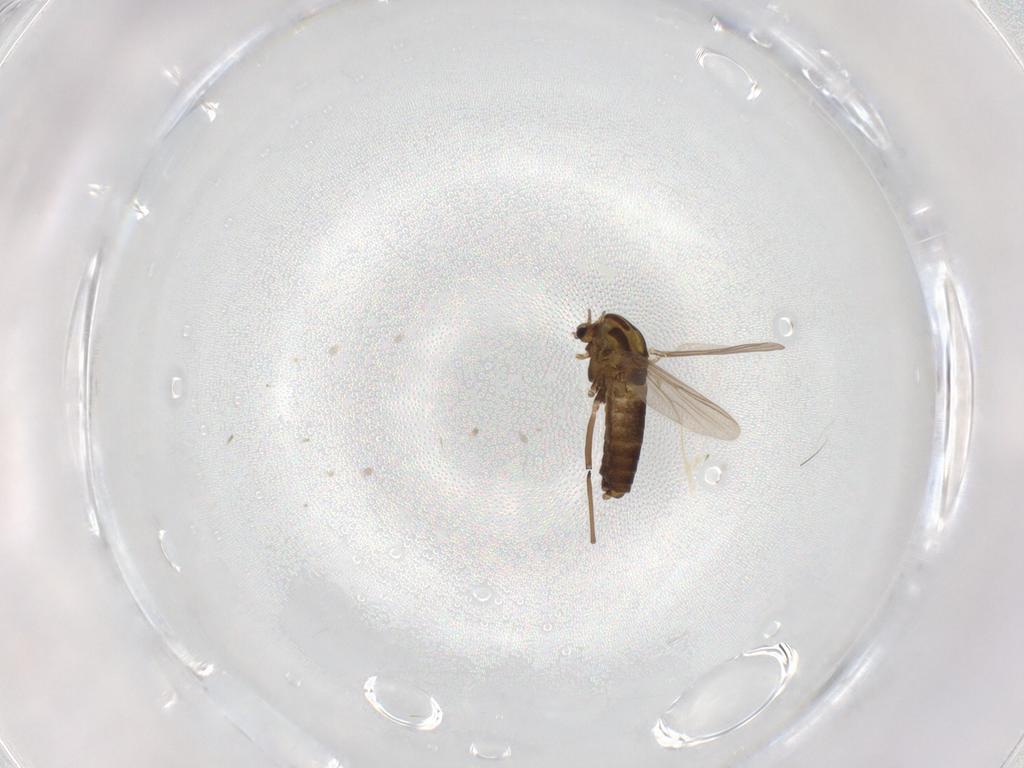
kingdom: Animalia
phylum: Arthropoda
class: Insecta
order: Diptera
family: Chironomidae
